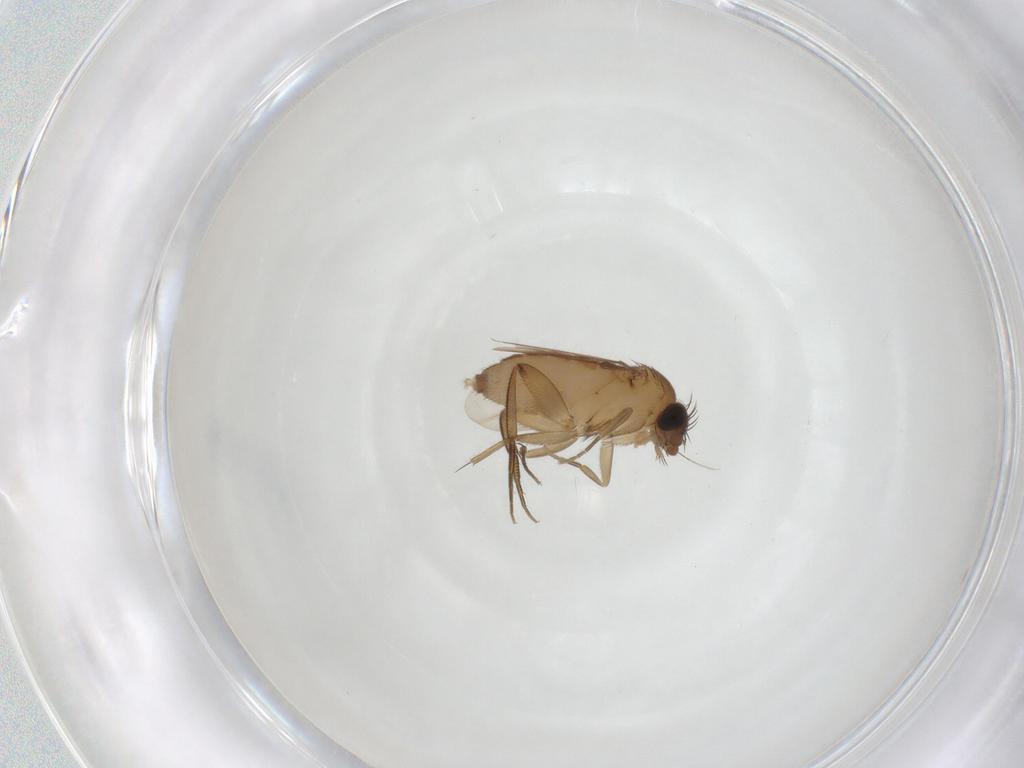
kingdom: Animalia
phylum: Arthropoda
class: Insecta
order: Diptera
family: Phoridae
